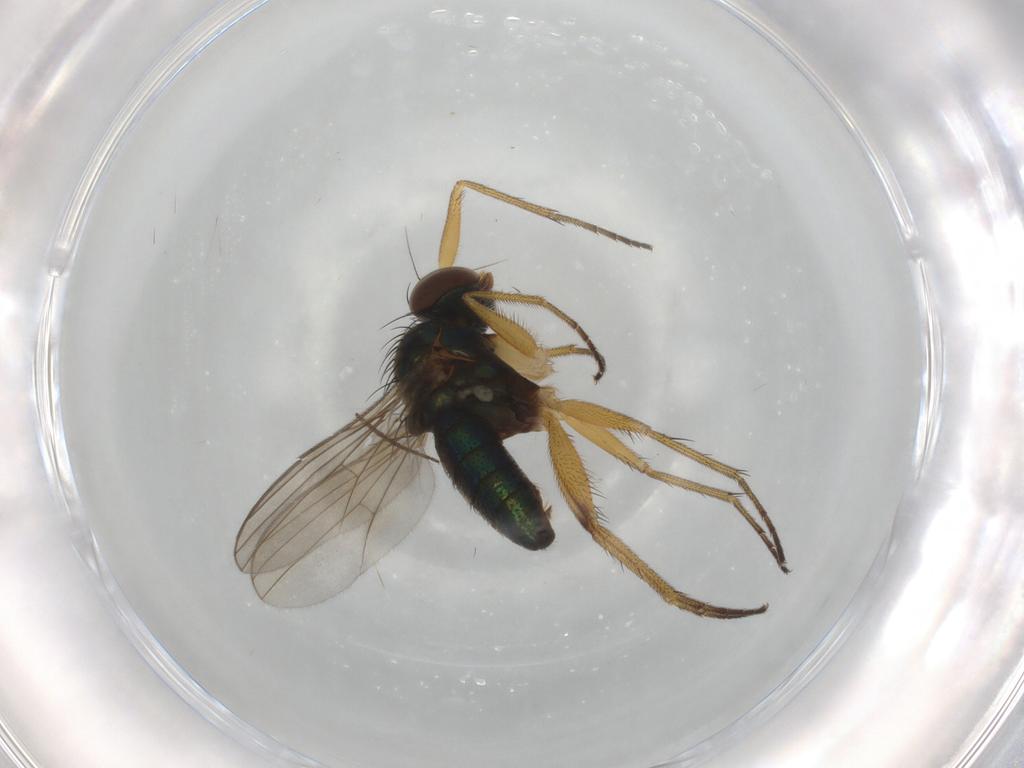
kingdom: Animalia
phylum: Arthropoda
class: Insecta
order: Diptera
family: Dolichopodidae
